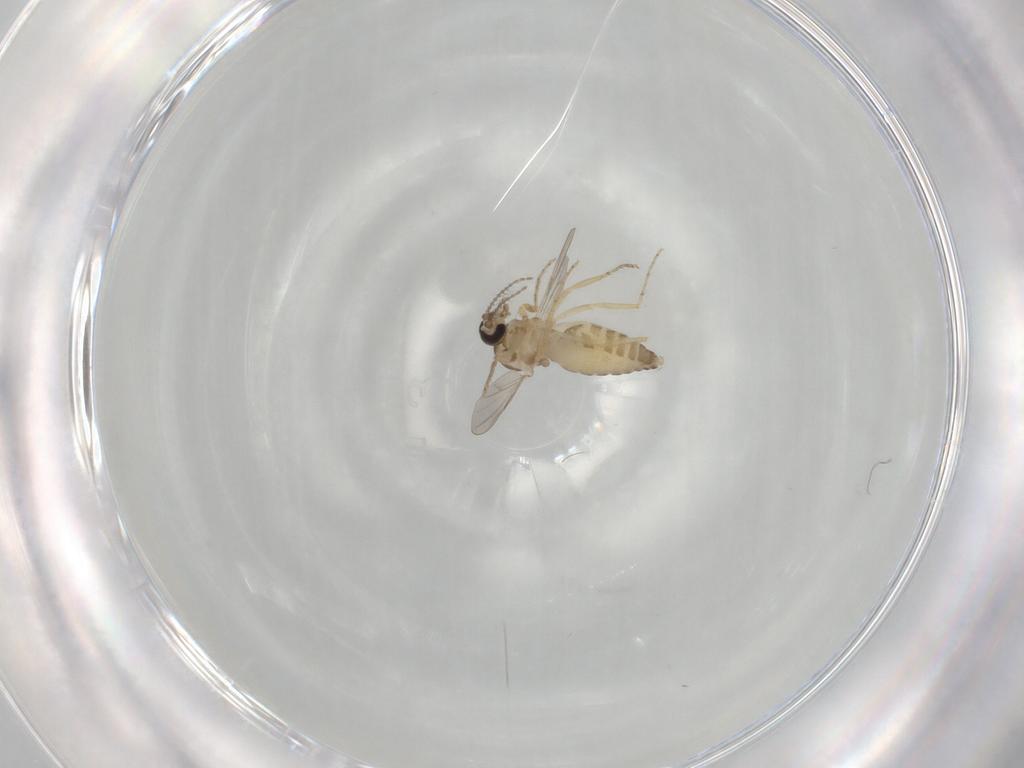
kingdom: Animalia
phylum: Arthropoda
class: Insecta
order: Diptera
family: Ceratopogonidae
